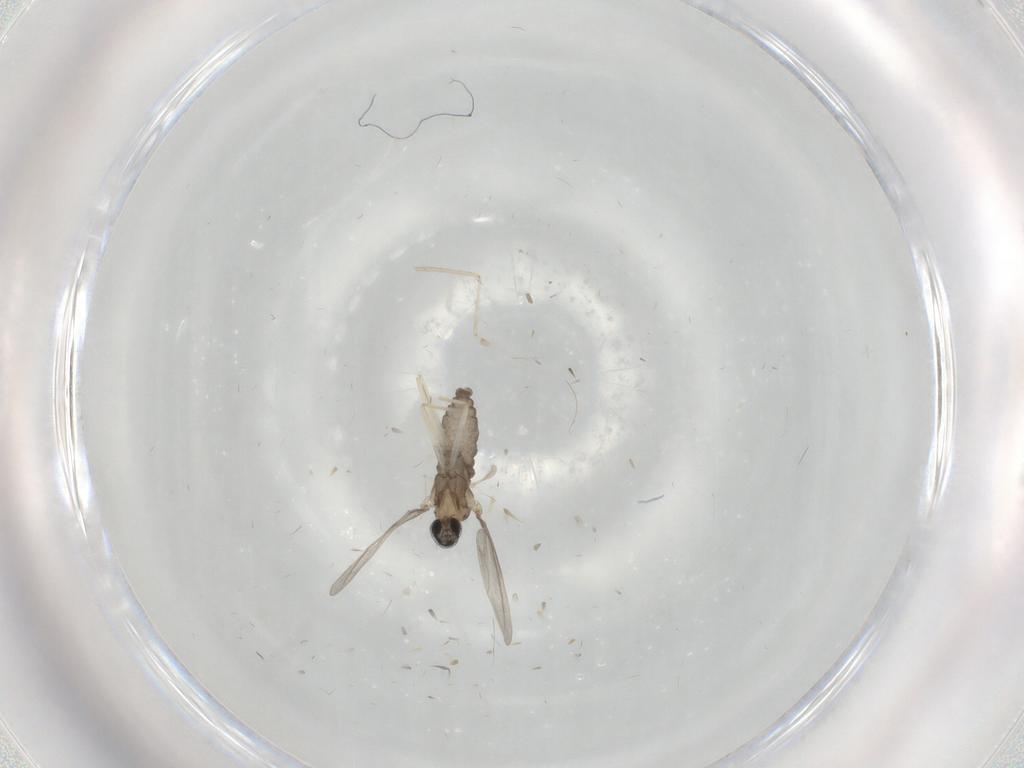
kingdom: Animalia
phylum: Arthropoda
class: Insecta
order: Diptera
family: Cecidomyiidae
